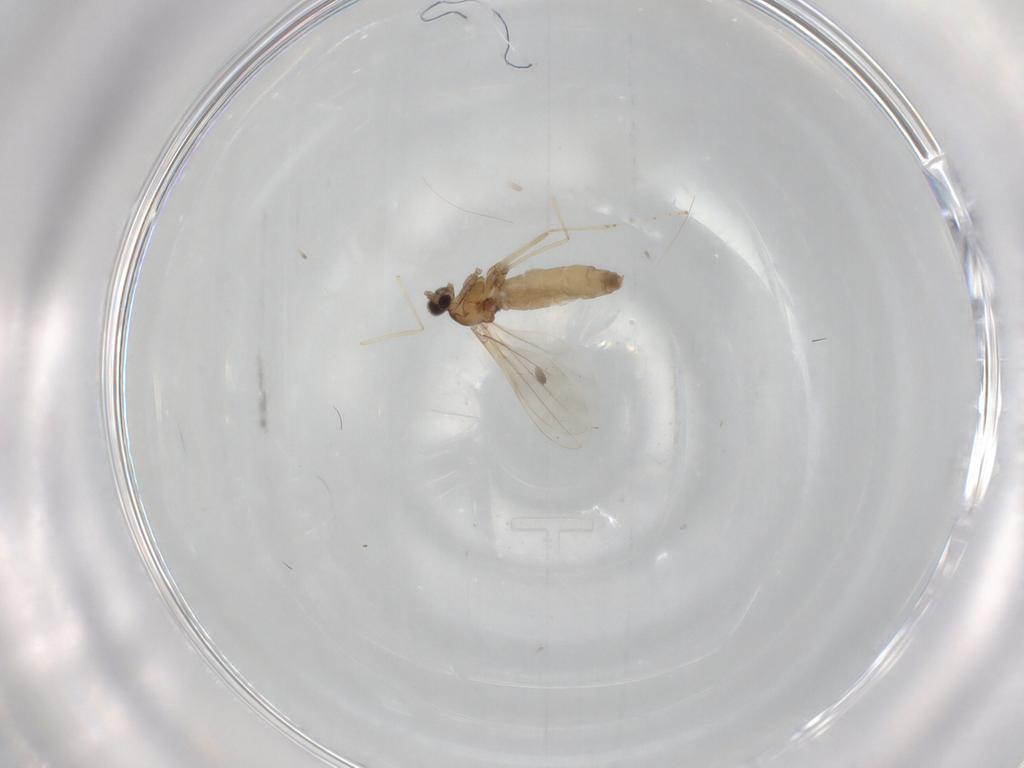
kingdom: Animalia
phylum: Arthropoda
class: Insecta
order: Diptera
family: Cecidomyiidae
